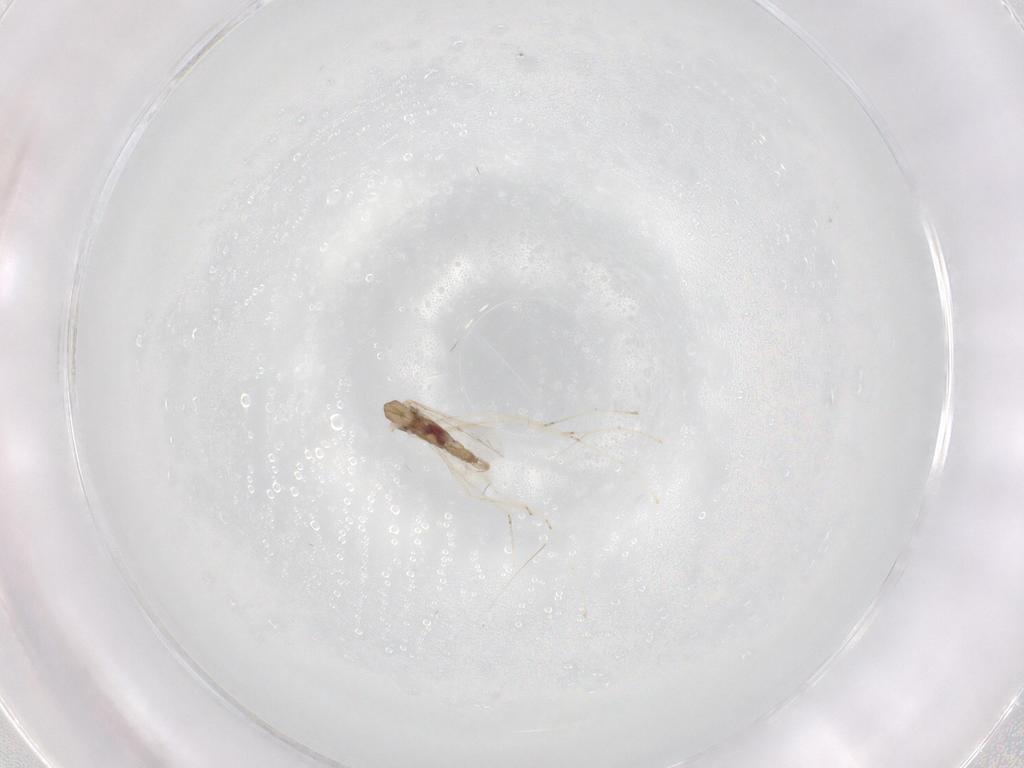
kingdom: Animalia
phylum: Arthropoda
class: Insecta
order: Diptera
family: Cecidomyiidae
